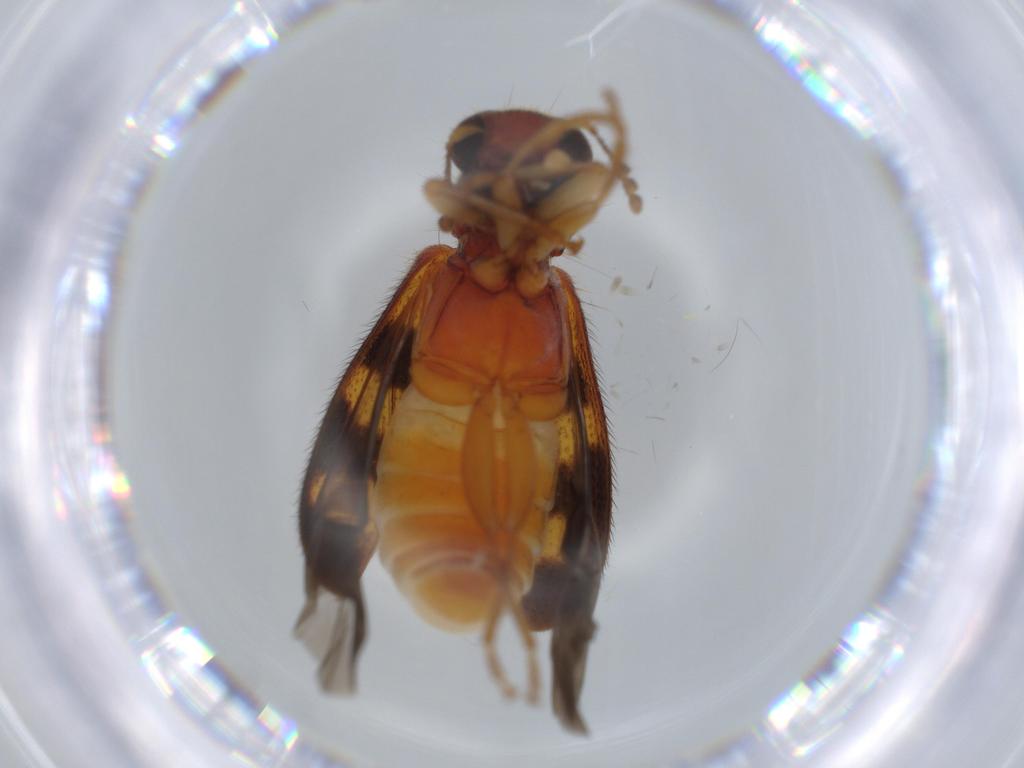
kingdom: Animalia
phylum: Arthropoda
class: Insecta
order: Coleoptera
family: Cleridae
